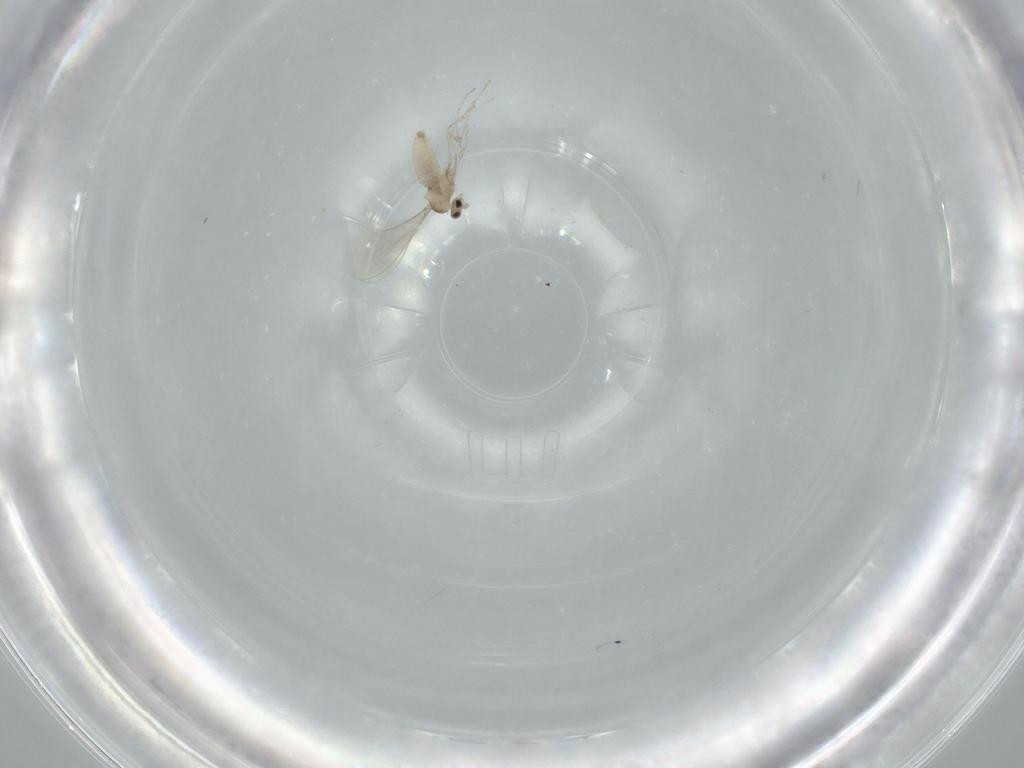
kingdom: Animalia
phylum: Arthropoda
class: Insecta
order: Diptera
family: Cecidomyiidae
